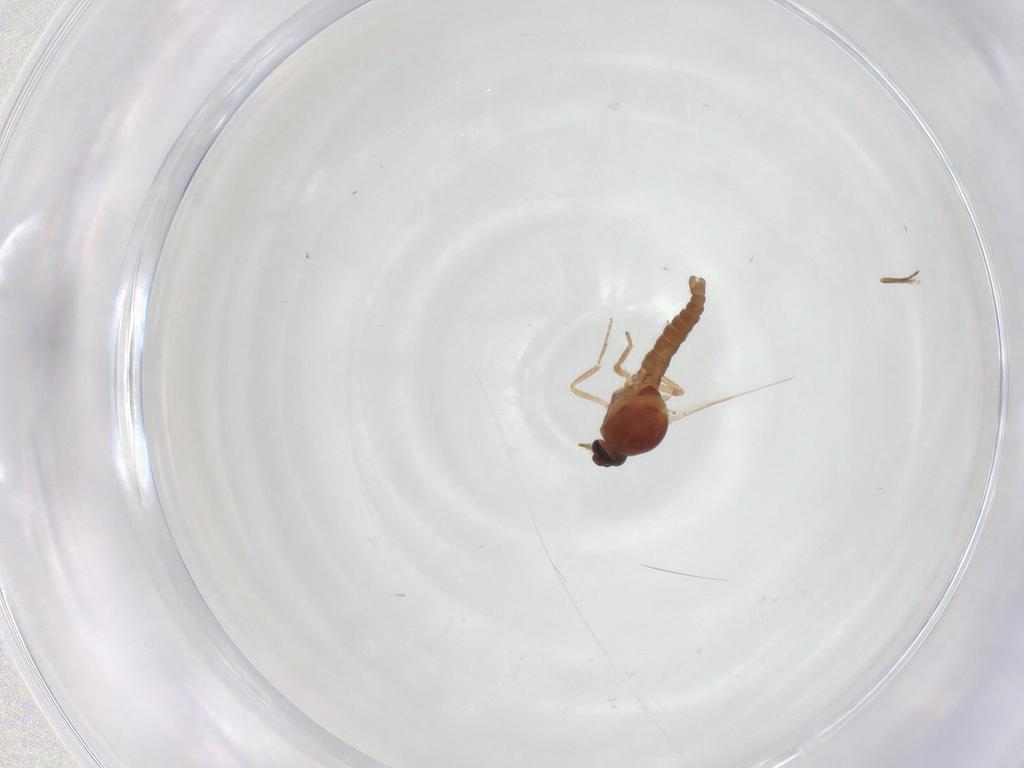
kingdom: Animalia
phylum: Arthropoda
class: Insecta
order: Diptera
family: Ceratopogonidae
